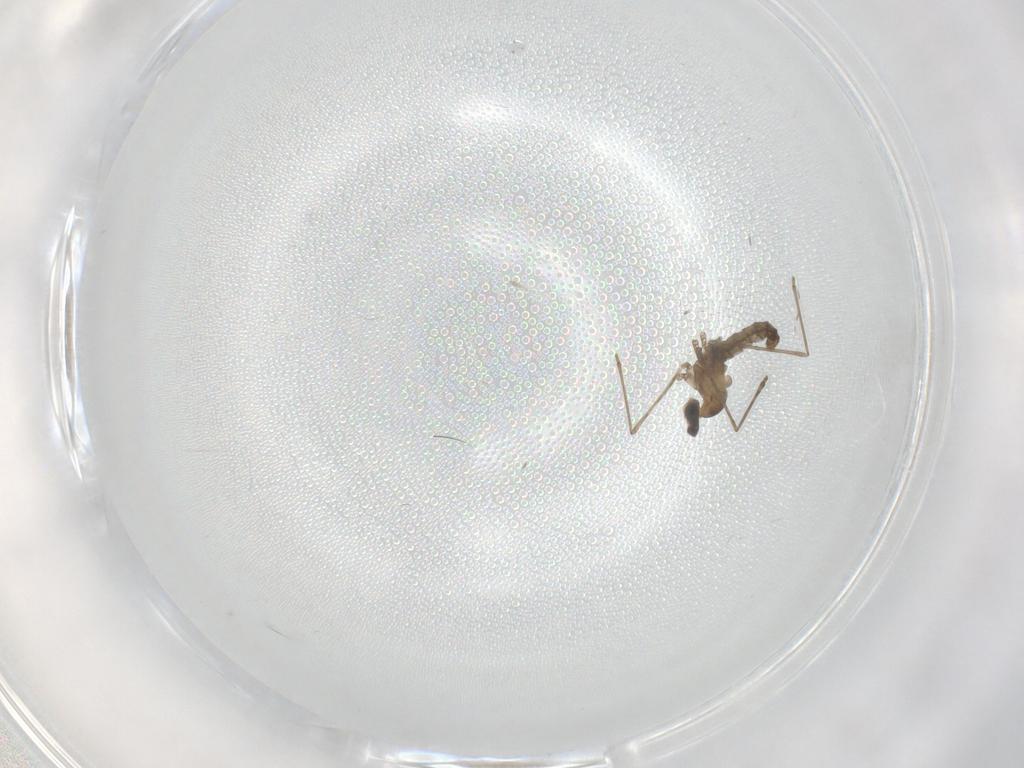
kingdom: Animalia
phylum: Arthropoda
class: Insecta
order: Diptera
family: Cecidomyiidae
